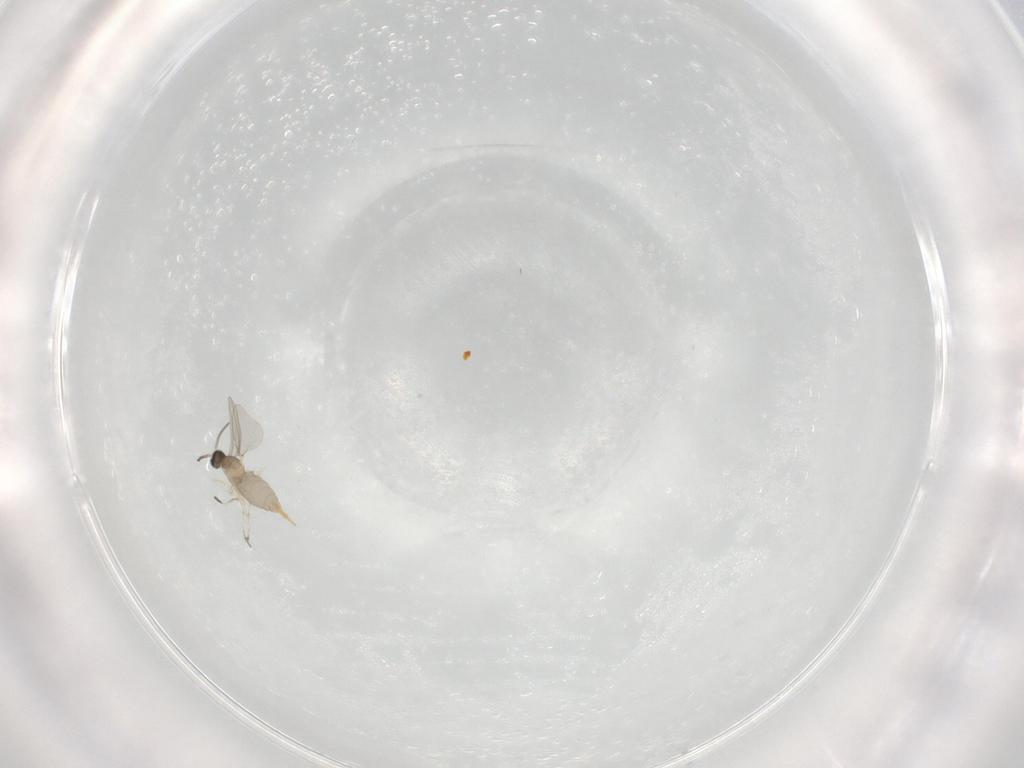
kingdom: Animalia
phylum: Arthropoda
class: Insecta
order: Diptera
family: Cecidomyiidae
